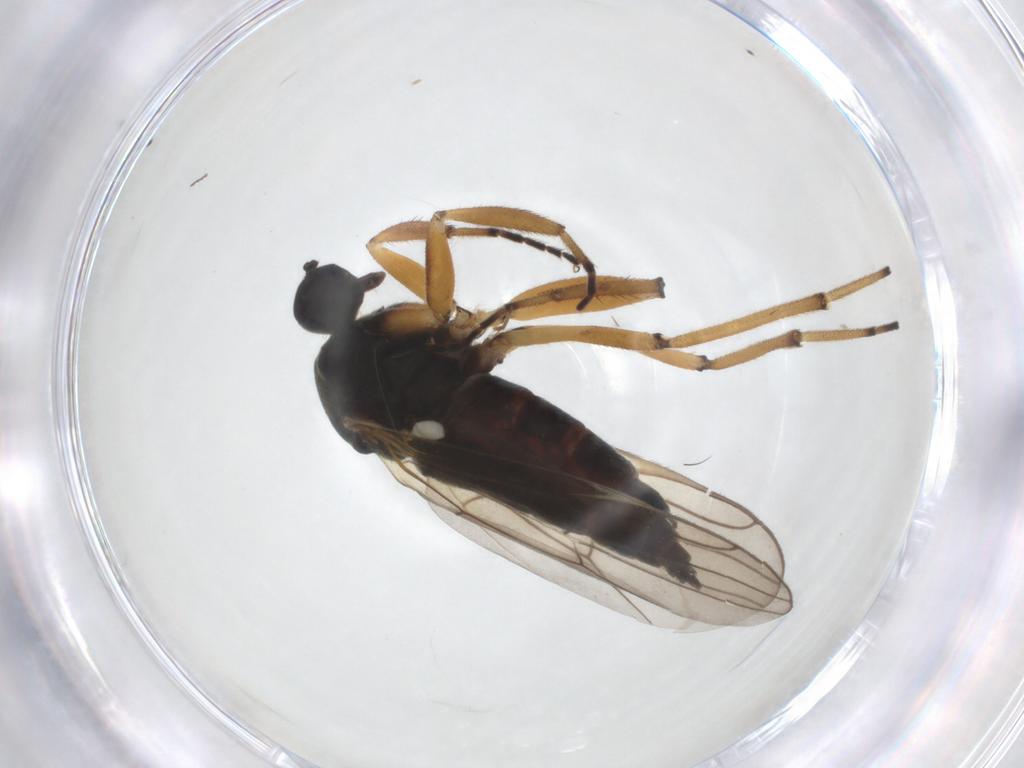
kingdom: Animalia
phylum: Arthropoda
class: Insecta
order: Diptera
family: Hybotidae
